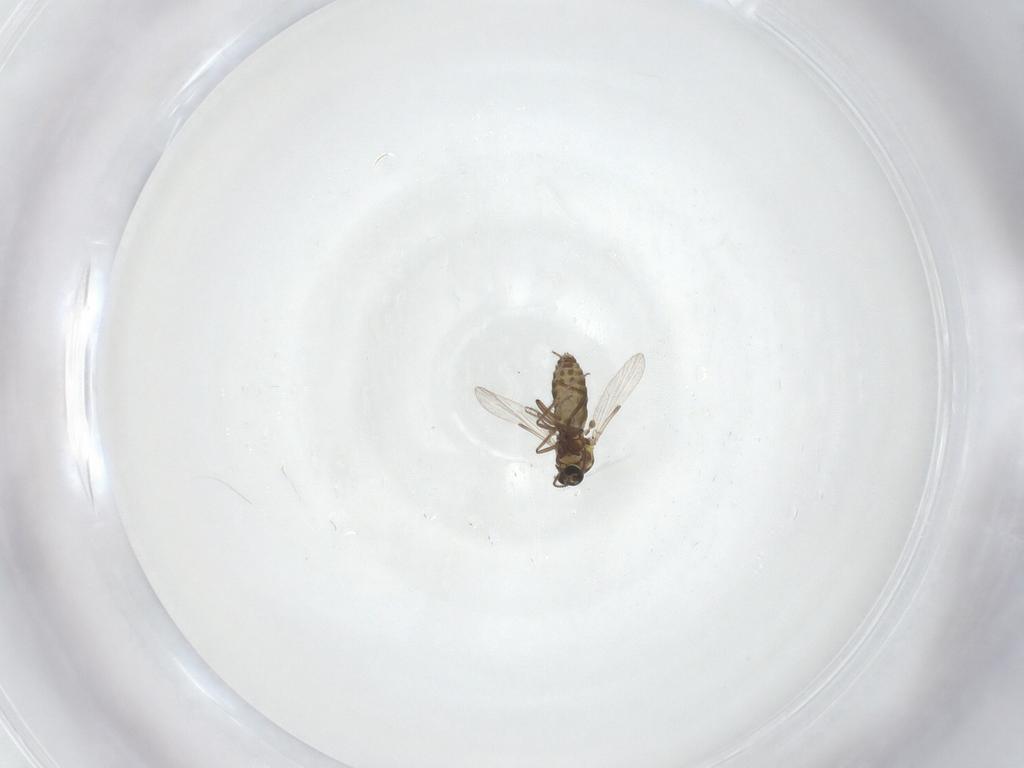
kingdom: Animalia
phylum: Arthropoda
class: Insecta
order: Diptera
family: Ceratopogonidae
